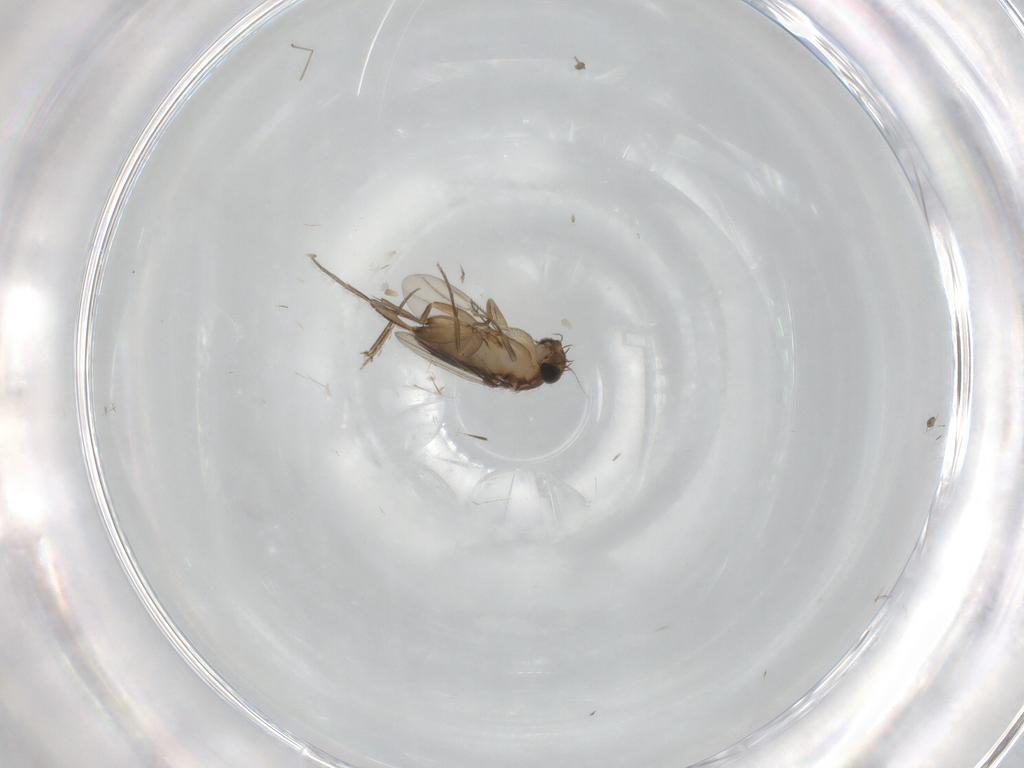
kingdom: Animalia
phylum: Arthropoda
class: Insecta
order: Diptera
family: Phoridae
